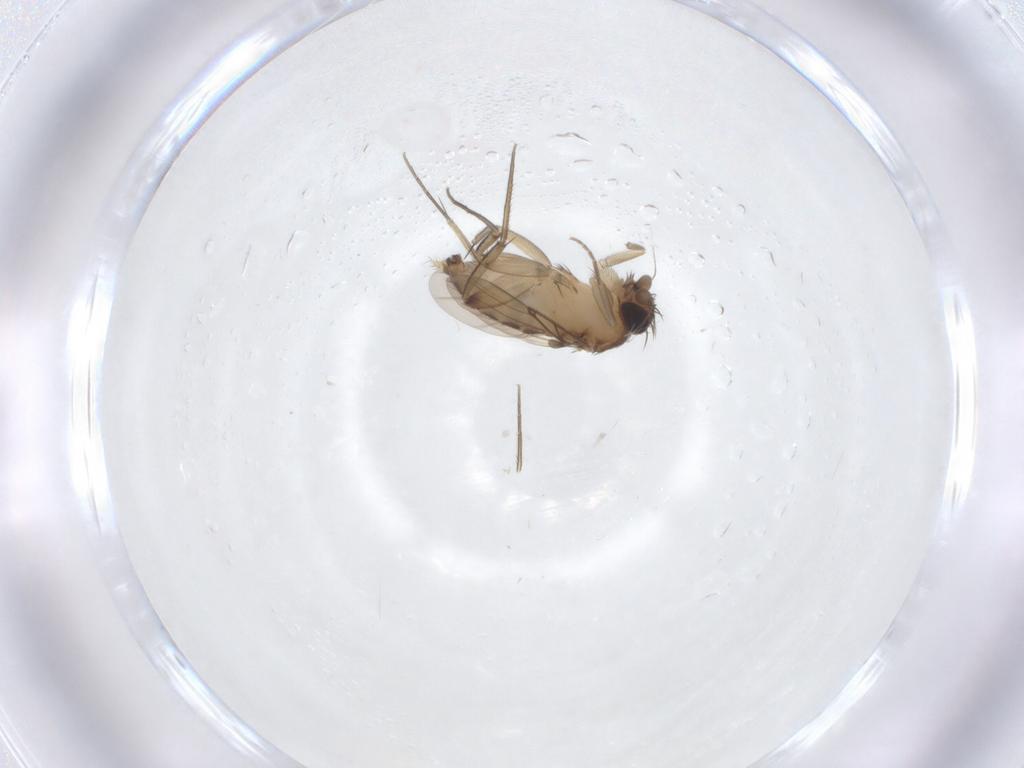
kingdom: Animalia
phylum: Arthropoda
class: Insecta
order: Diptera
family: Phoridae
